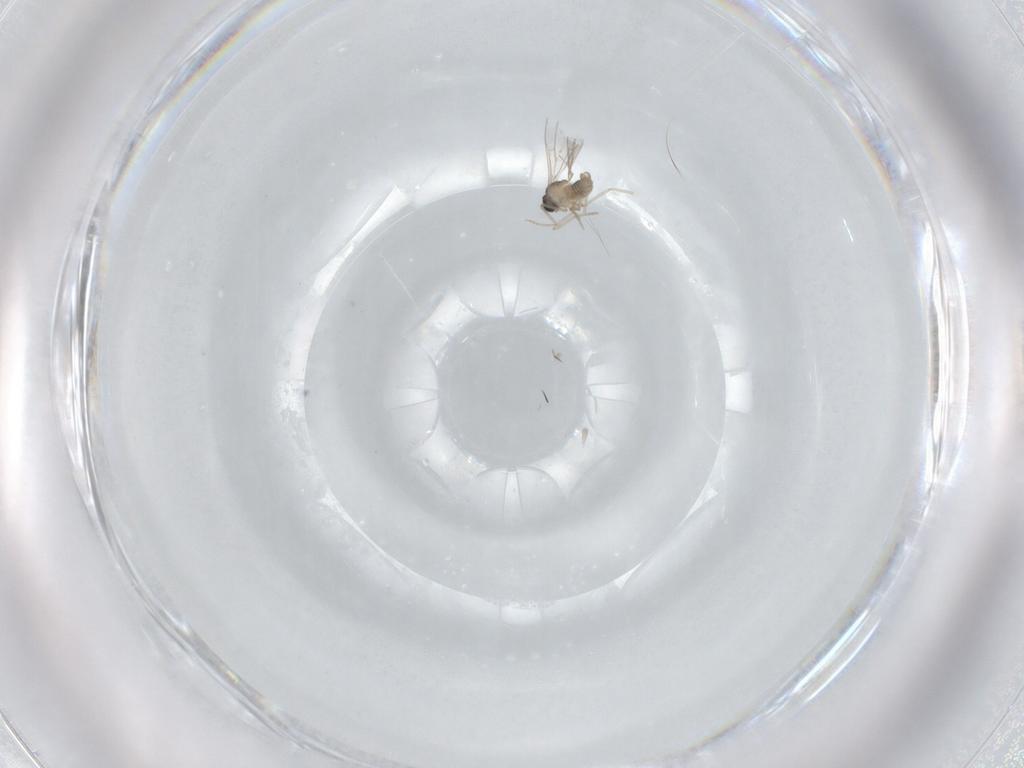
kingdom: Animalia
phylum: Arthropoda
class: Insecta
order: Diptera
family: Cecidomyiidae
